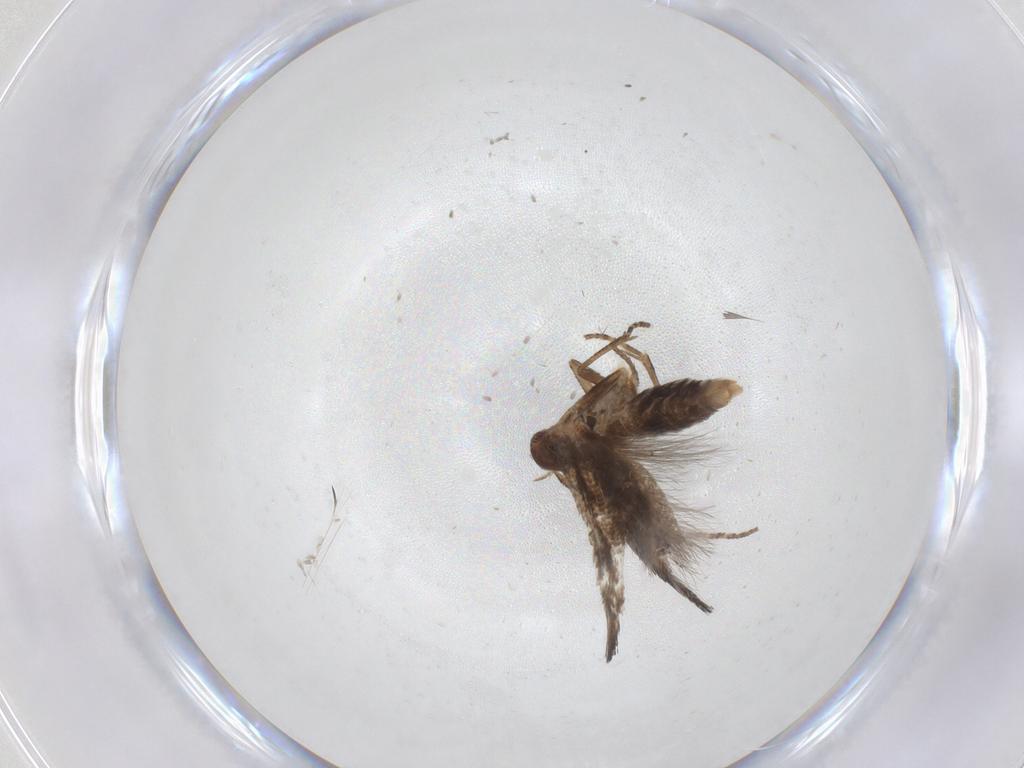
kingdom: Animalia
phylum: Arthropoda
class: Insecta
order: Lepidoptera
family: Momphidae
